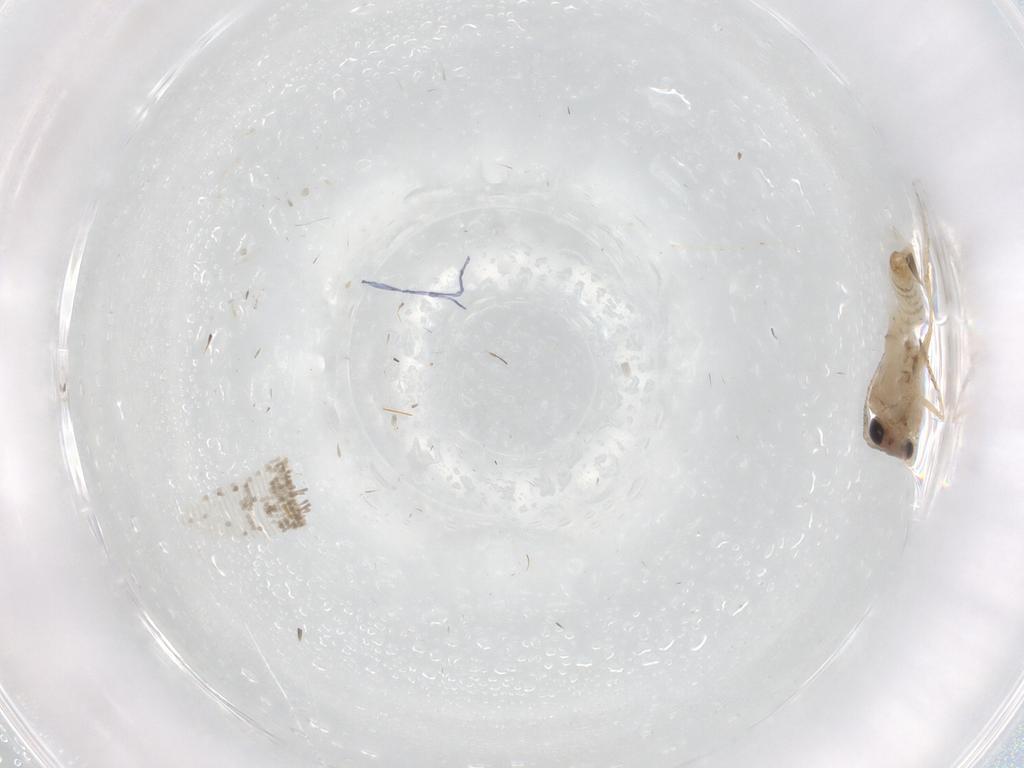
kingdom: Animalia
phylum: Arthropoda
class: Insecta
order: Lepidoptera
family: Tineidae
